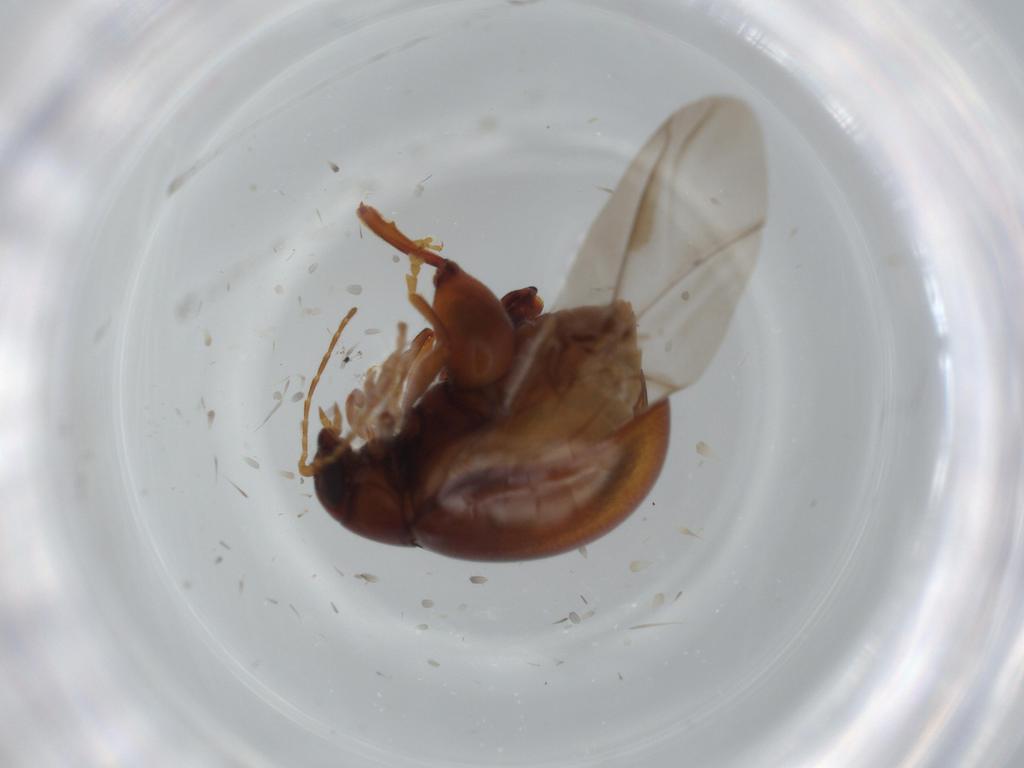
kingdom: Animalia
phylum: Arthropoda
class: Insecta
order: Coleoptera
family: Chrysomelidae
